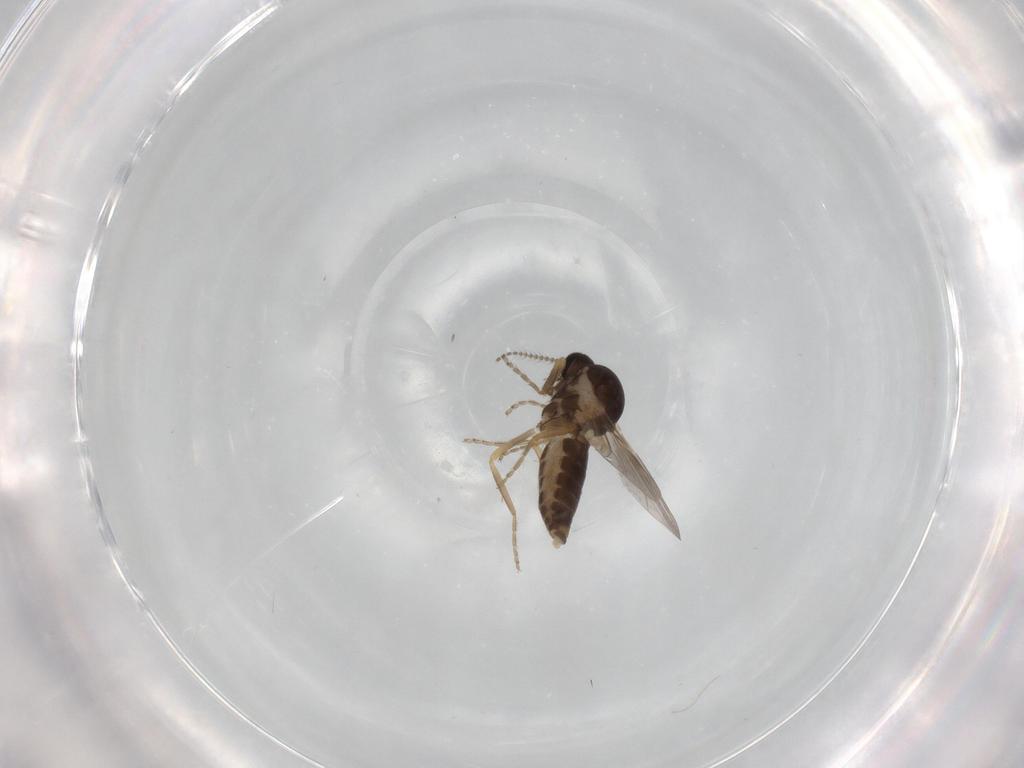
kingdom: Animalia
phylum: Arthropoda
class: Insecta
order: Diptera
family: Ceratopogonidae
